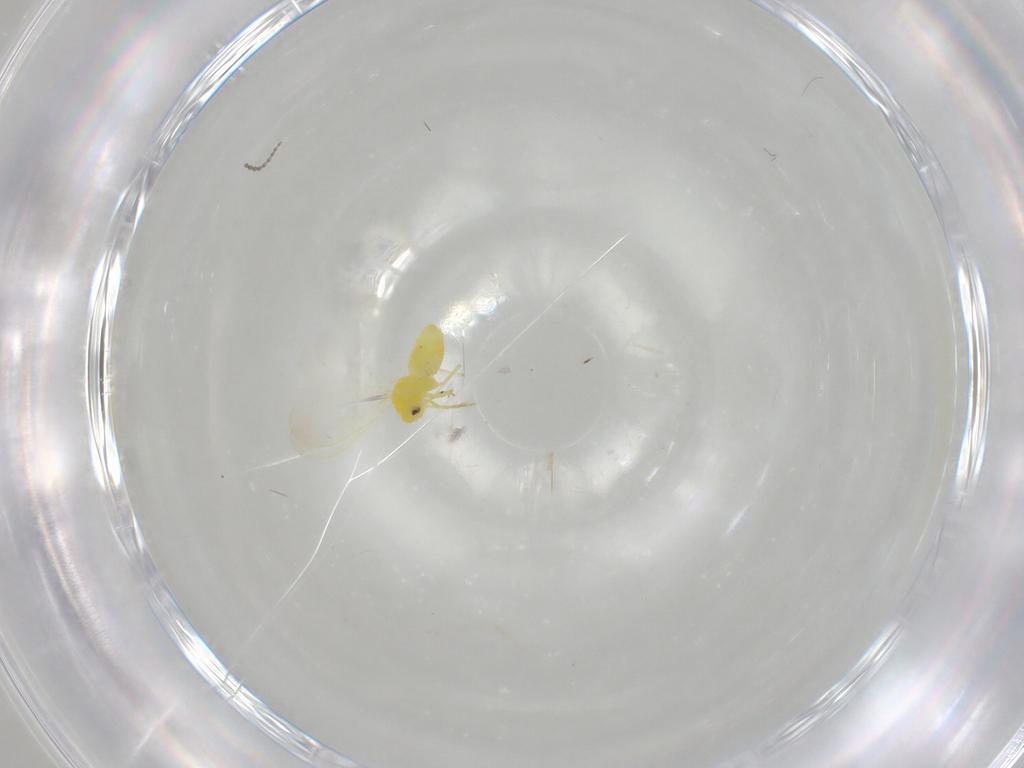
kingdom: Animalia
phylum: Arthropoda
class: Insecta
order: Hemiptera
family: Aleyrodidae
